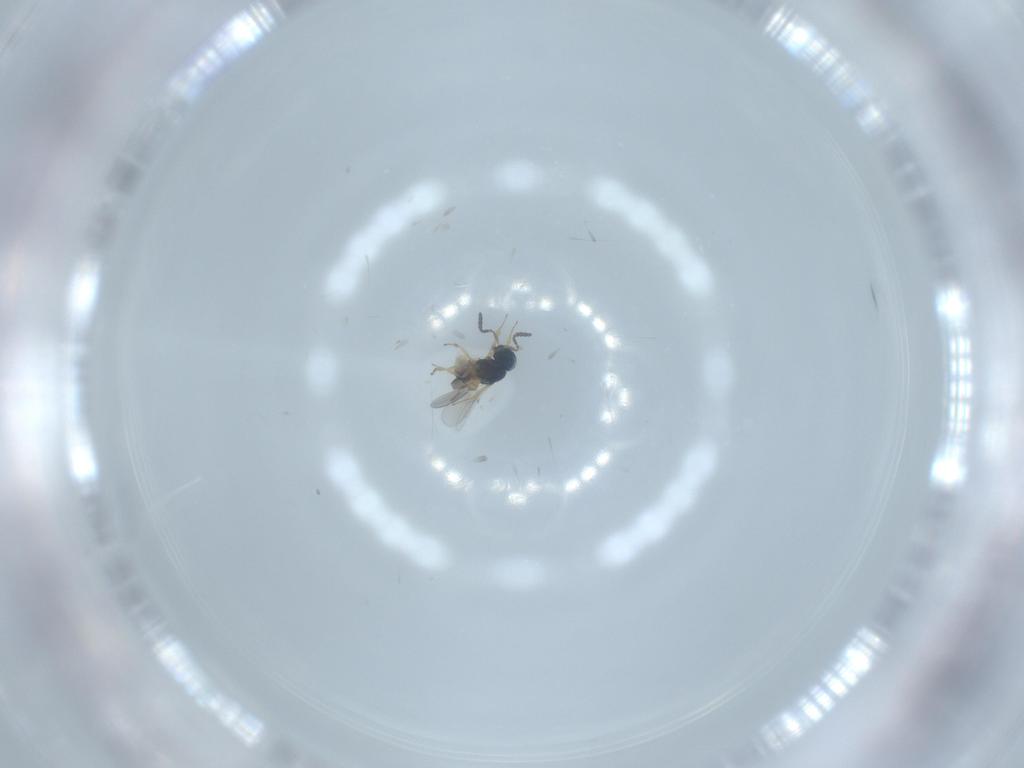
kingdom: Animalia
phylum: Arthropoda
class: Insecta
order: Hymenoptera
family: Scelionidae
